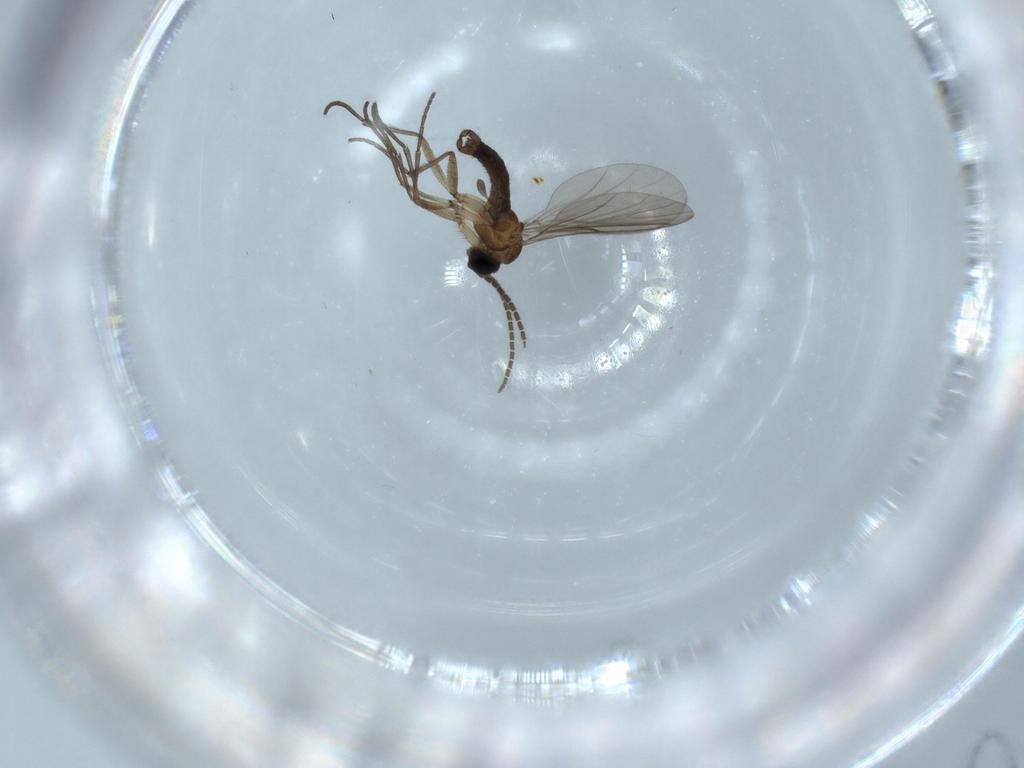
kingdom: Animalia
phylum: Arthropoda
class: Insecta
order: Diptera
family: Sciaridae
